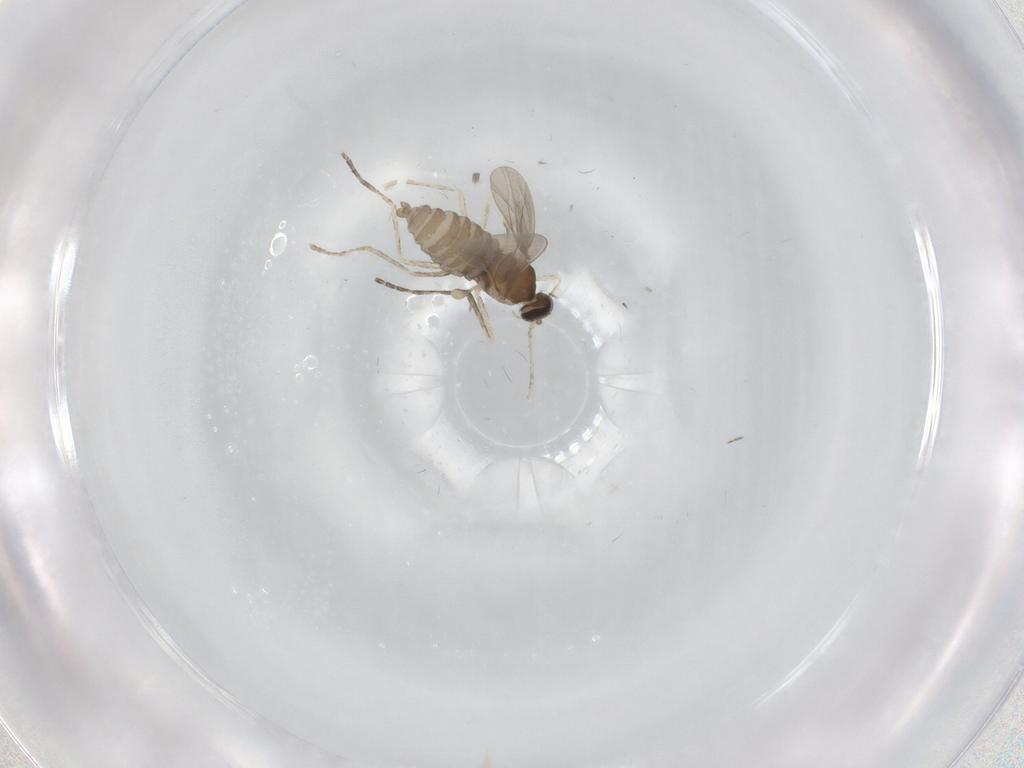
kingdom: Animalia
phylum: Arthropoda
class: Insecta
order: Diptera
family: Cecidomyiidae
